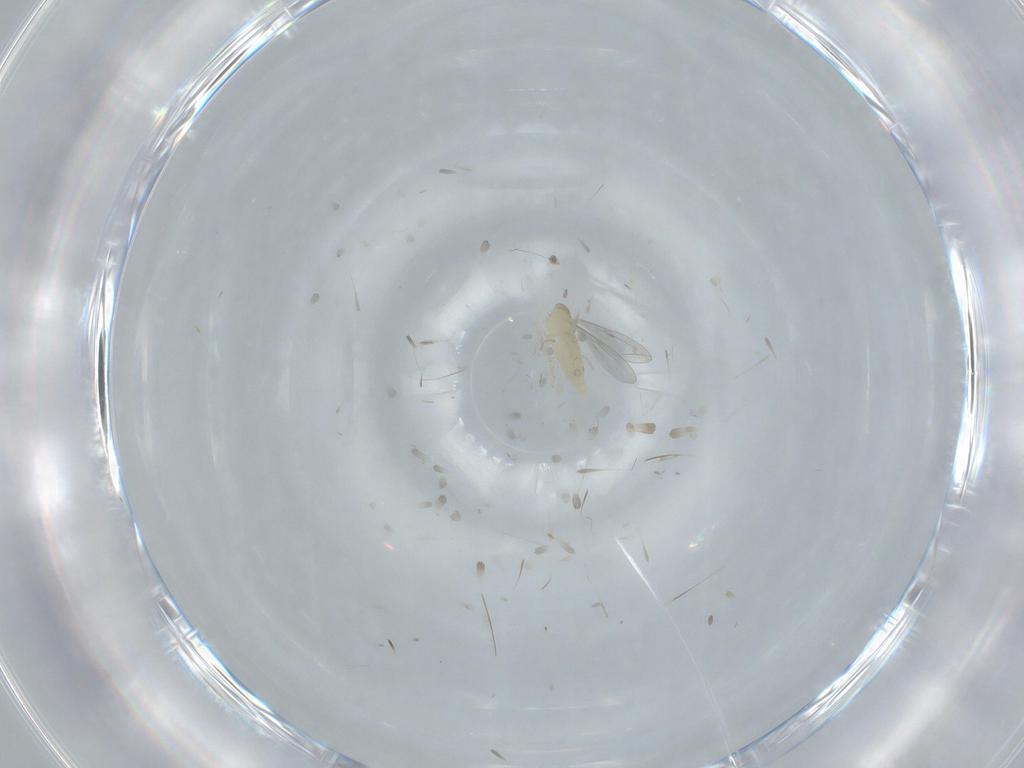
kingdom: Animalia
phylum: Arthropoda
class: Insecta
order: Diptera
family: Cecidomyiidae
